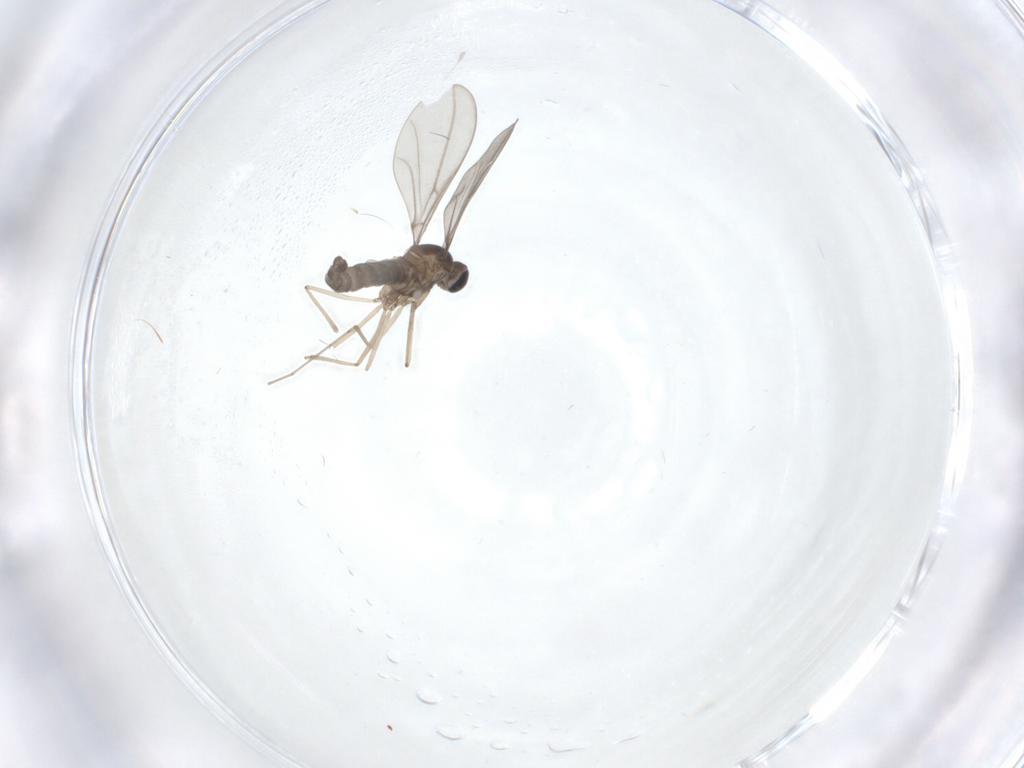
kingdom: Animalia
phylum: Arthropoda
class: Insecta
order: Diptera
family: Cecidomyiidae
